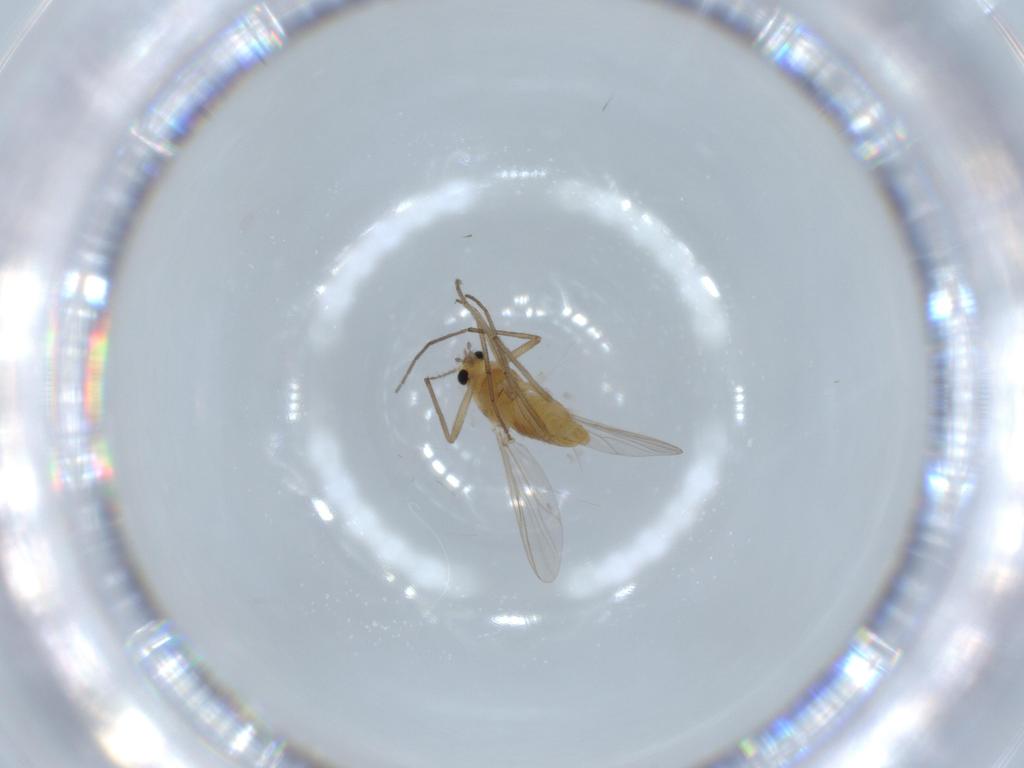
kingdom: Animalia
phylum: Arthropoda
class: Insecta
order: Diptera
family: Chironomidae
